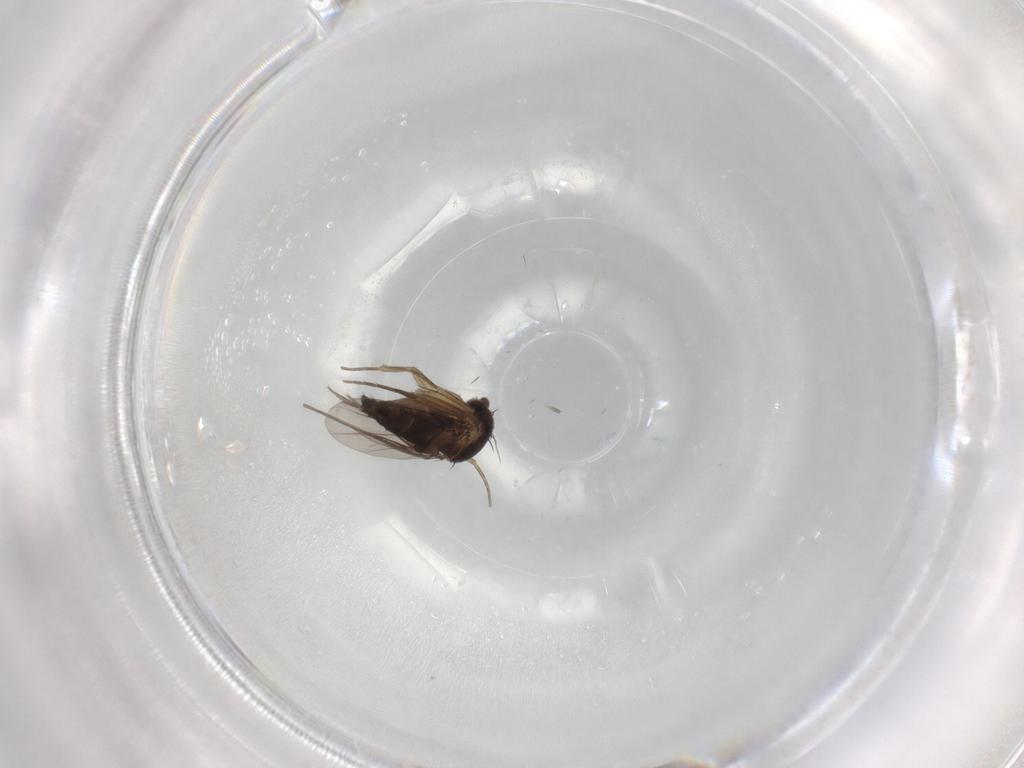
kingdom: Animalia
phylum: Arthropoda
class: Insecta
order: Diptera
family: Phoridae
